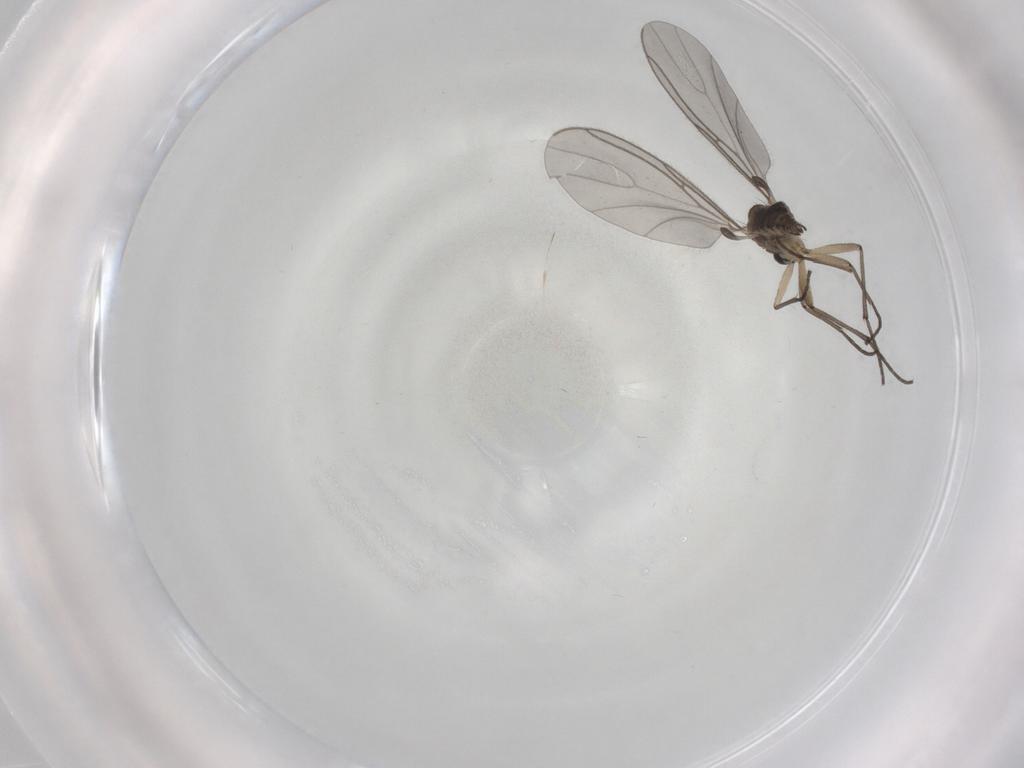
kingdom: Animalia
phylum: Arthropoda
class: Insecta
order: Diptera
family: Sciaridae
